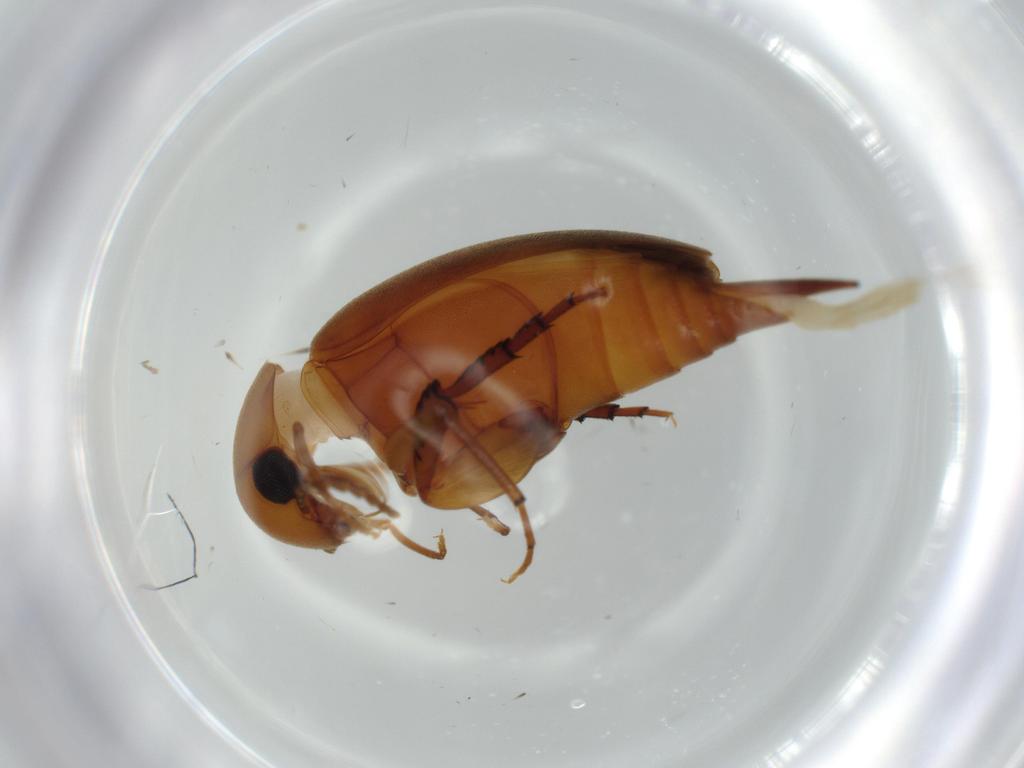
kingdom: Animalia
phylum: Arthropoda
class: Insecta
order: Coleoptera
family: Mordellidae
